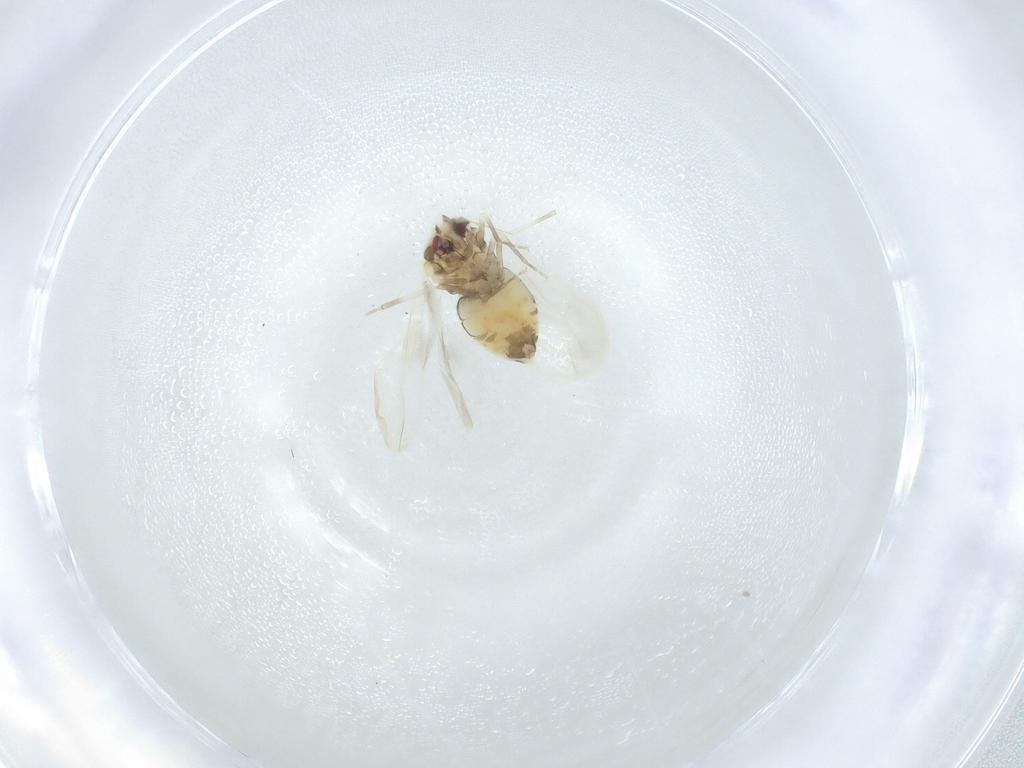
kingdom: Animalia
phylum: Arthropoda
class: Insecta
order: Hemiptera
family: Aleyrodidae
